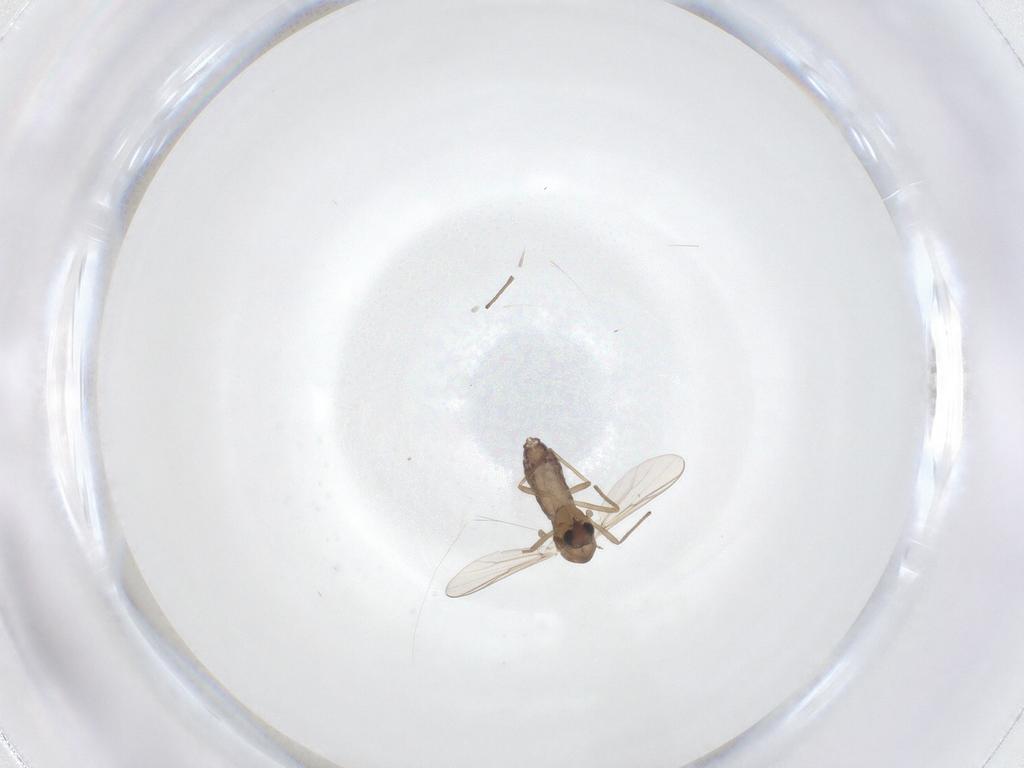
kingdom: Animalia
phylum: Arthropoda
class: Insecta
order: Diptera
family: Chironomidae
